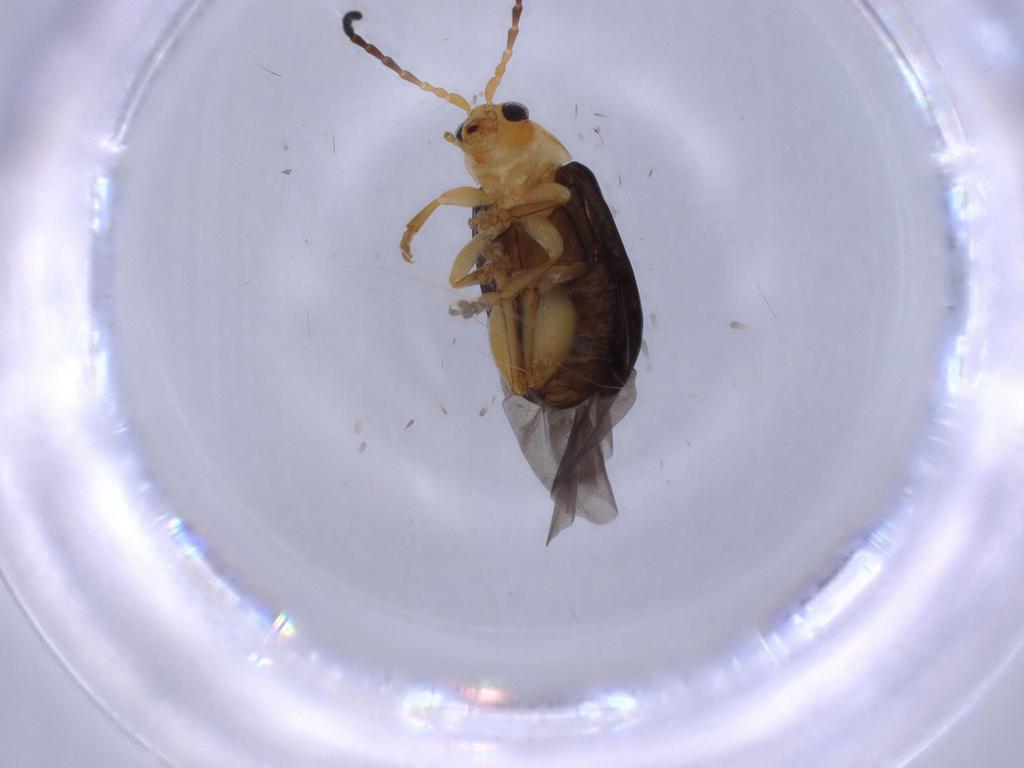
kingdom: Animalia
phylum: Arthropoda
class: Insecta
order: Coleoptera
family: Chrysomelidae
